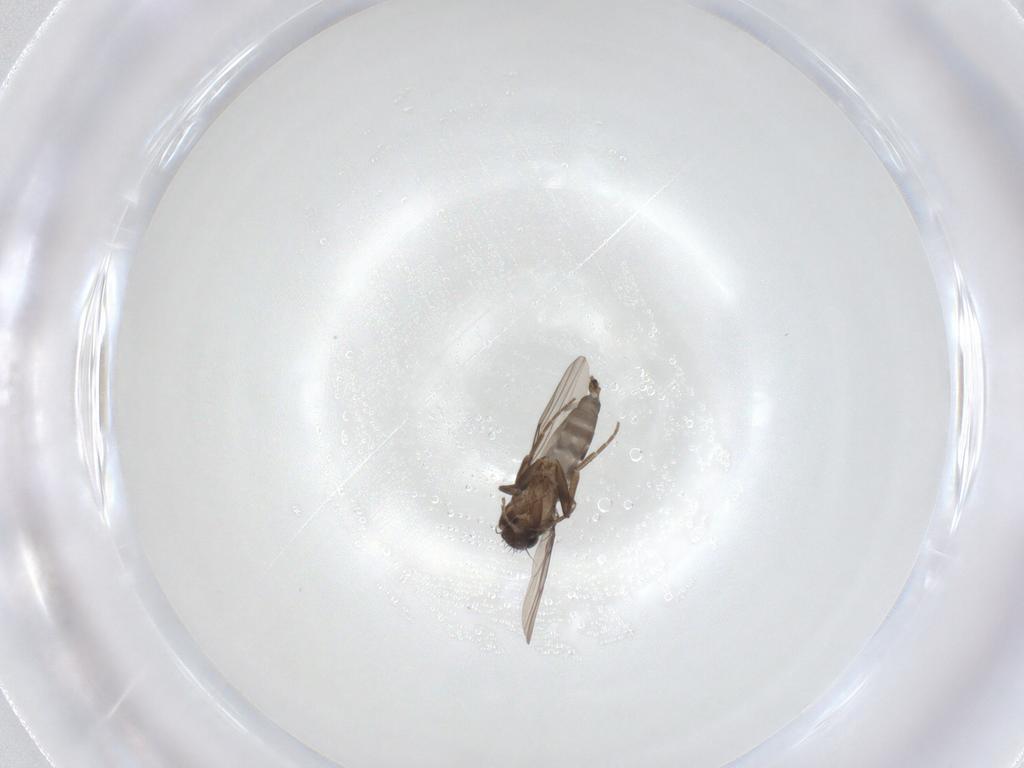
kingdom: Animalia
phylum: Arthropoda
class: Insecta
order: Diptera
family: Phoridae
